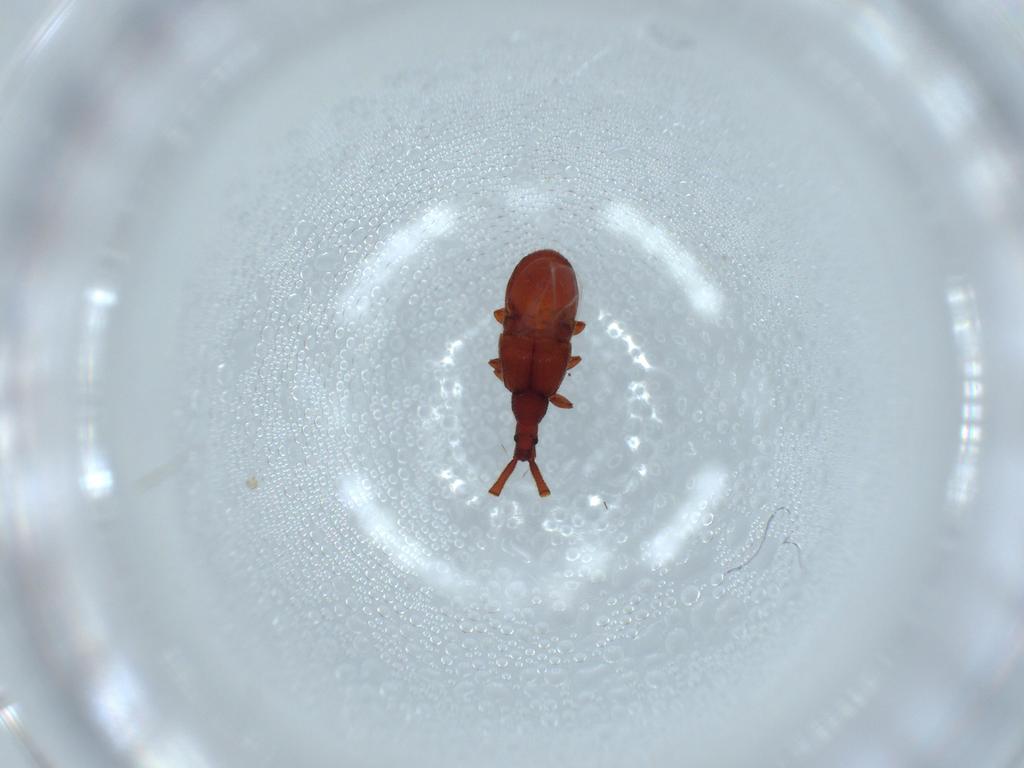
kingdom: Animalia
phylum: Arthropoda
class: Insecta
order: Coleoptera
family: Staphylinidae
